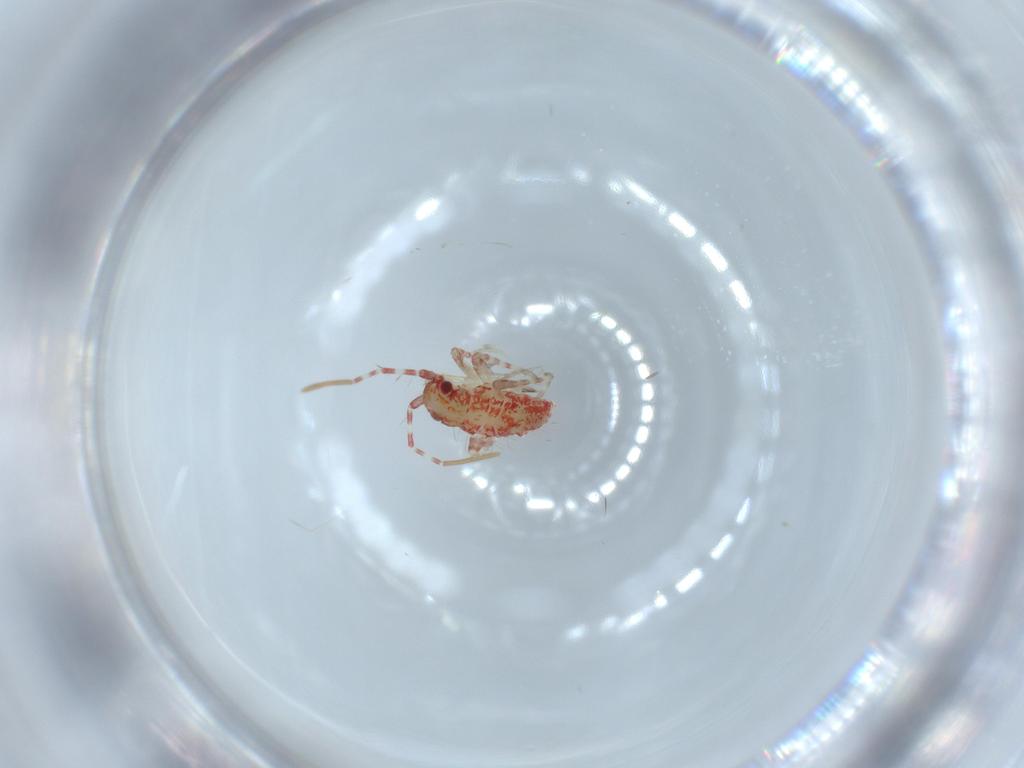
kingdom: Animalia
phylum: Arthropoda
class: Insecta
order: Hemiptera
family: Miridae
